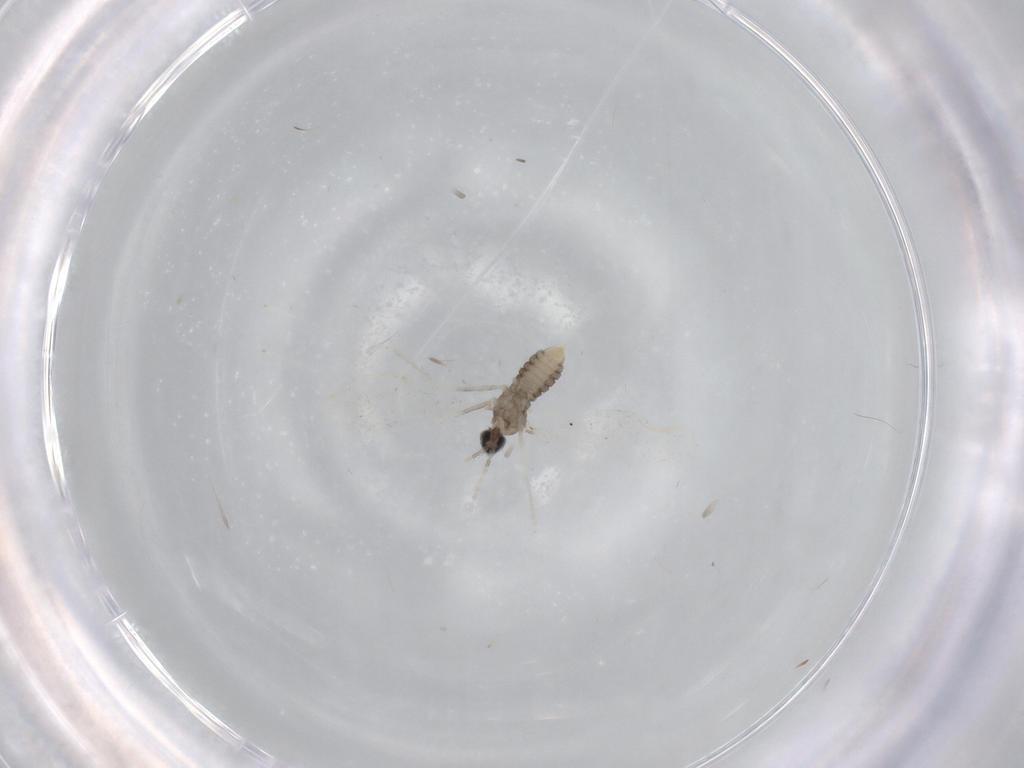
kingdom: Animalia
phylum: Arthropoda
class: Insecta
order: Diptera
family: Mycetophilidae
